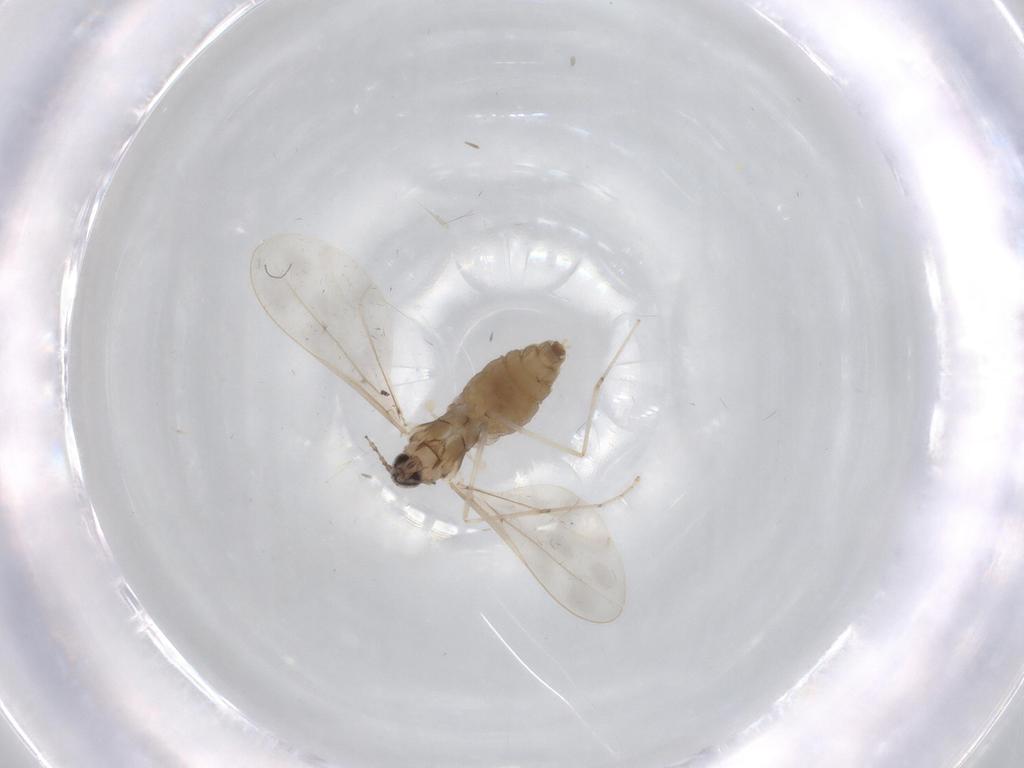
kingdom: Animalia
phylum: Arthropoda
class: Insecta
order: Diptera
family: Cecidomyiidae
